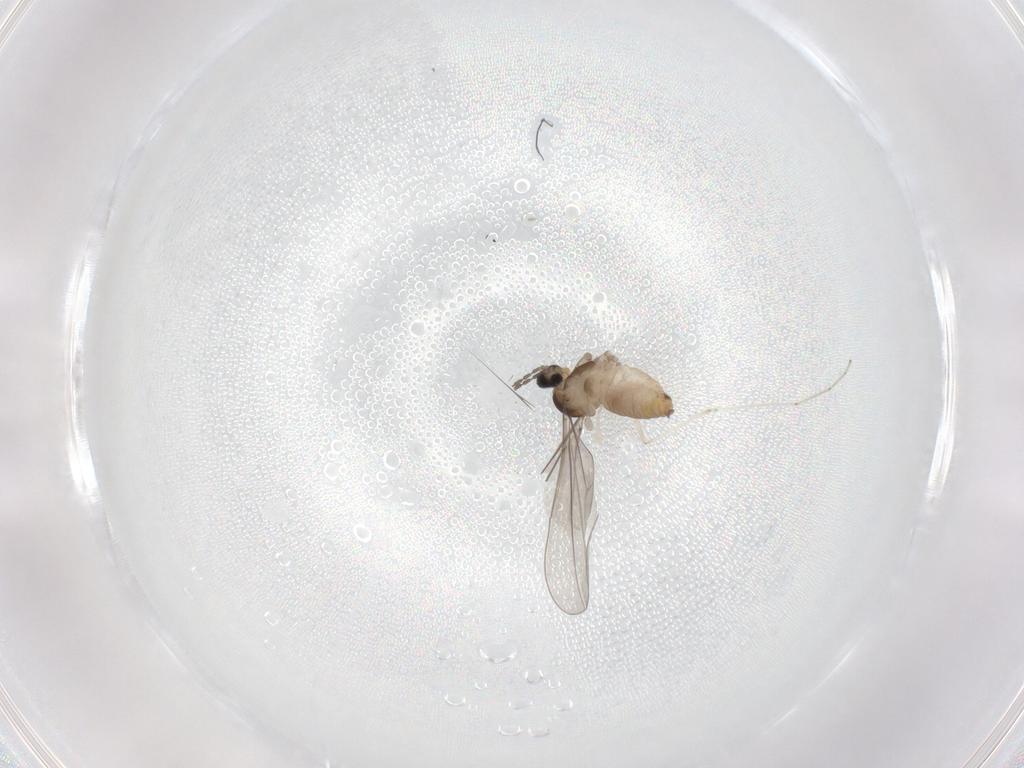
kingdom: Animalia
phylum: Arthropoda
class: Insecta
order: Diptera
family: Cecidomyiidae
